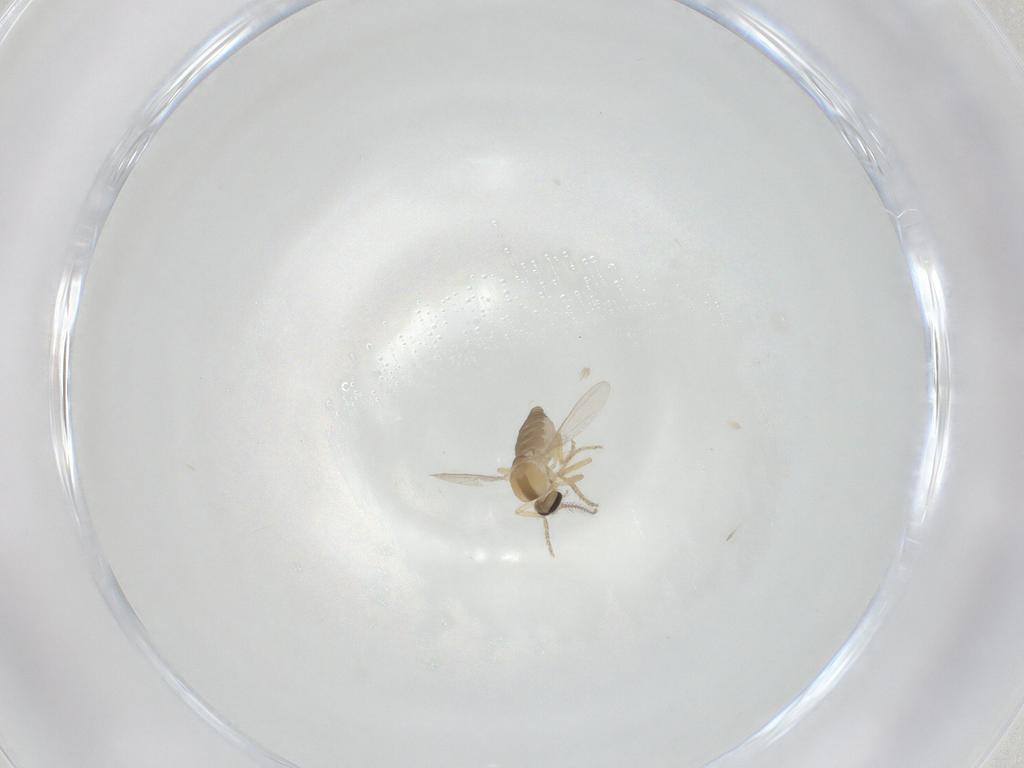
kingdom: Animalia
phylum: Arthropoda
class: Insecta
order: Diptera
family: Ceratopogonidae
